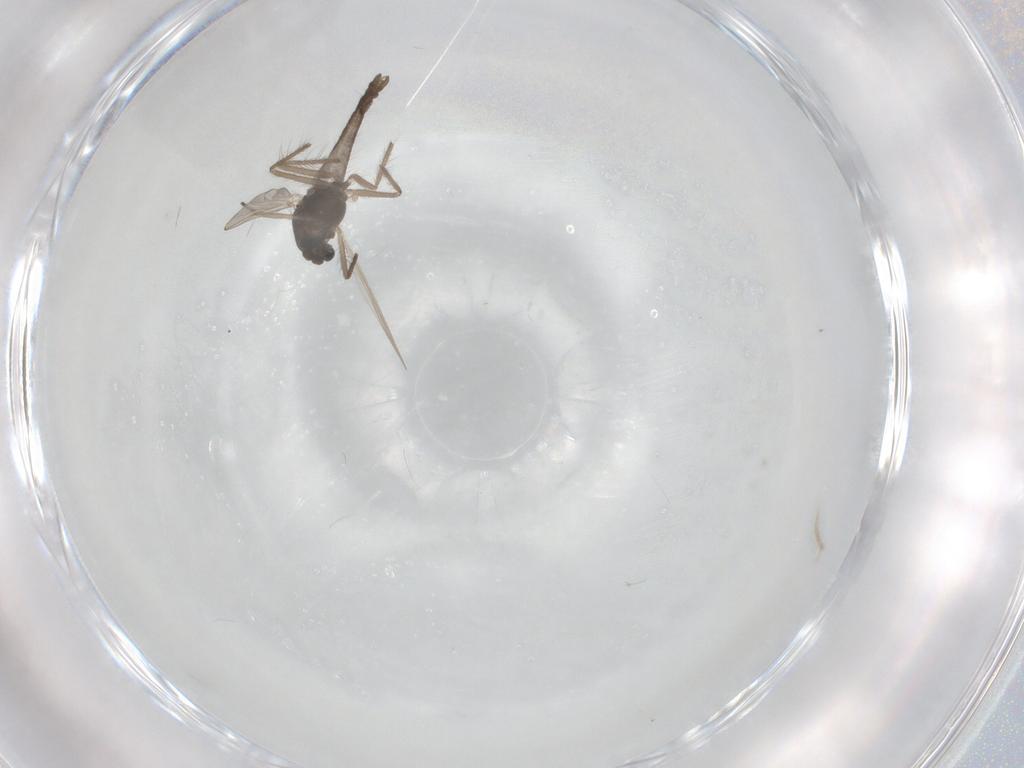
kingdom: Animalia
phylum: Arthropoda
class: Insecta
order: Diptera
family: Chironomidae
